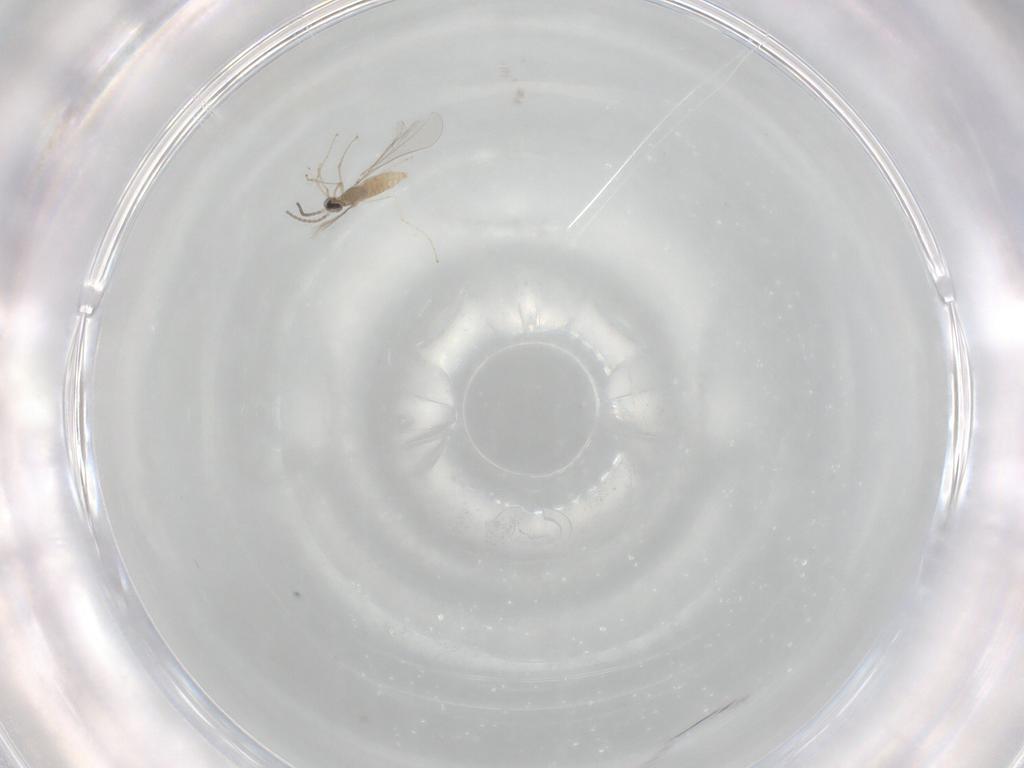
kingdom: Animalia
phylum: Arthropoda
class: Insecta
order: Diptera
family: Cecidomyiidae
